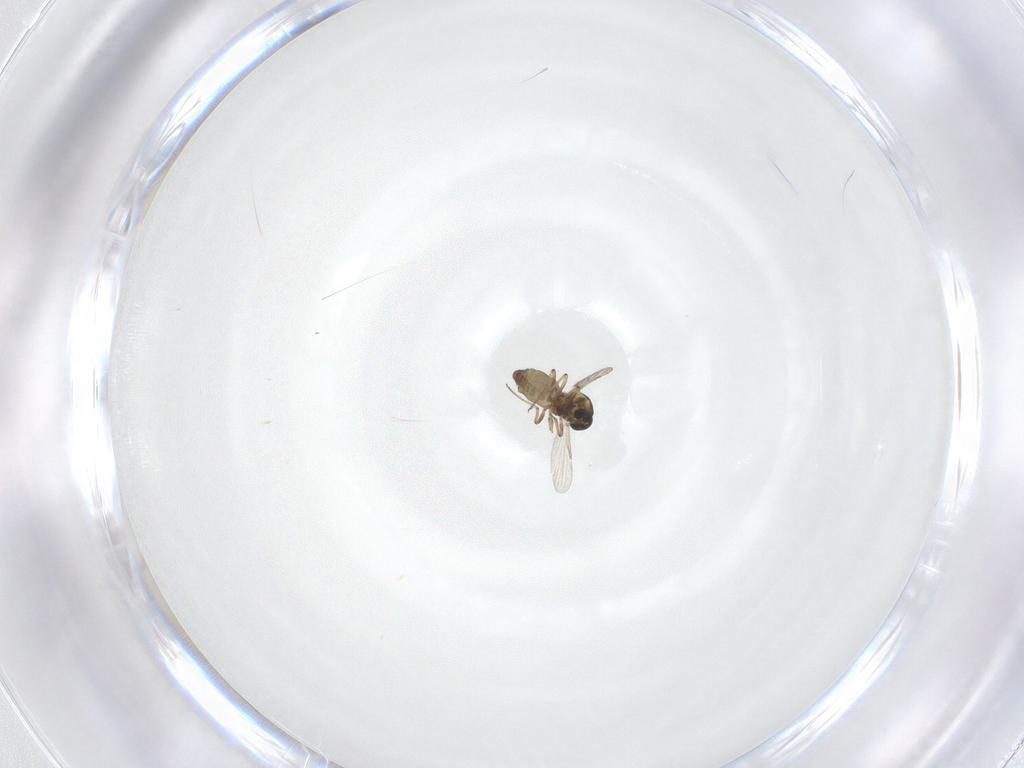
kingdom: Animalia
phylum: Arthropoda
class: Insecta
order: Diptera
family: Ceratopogonidae
